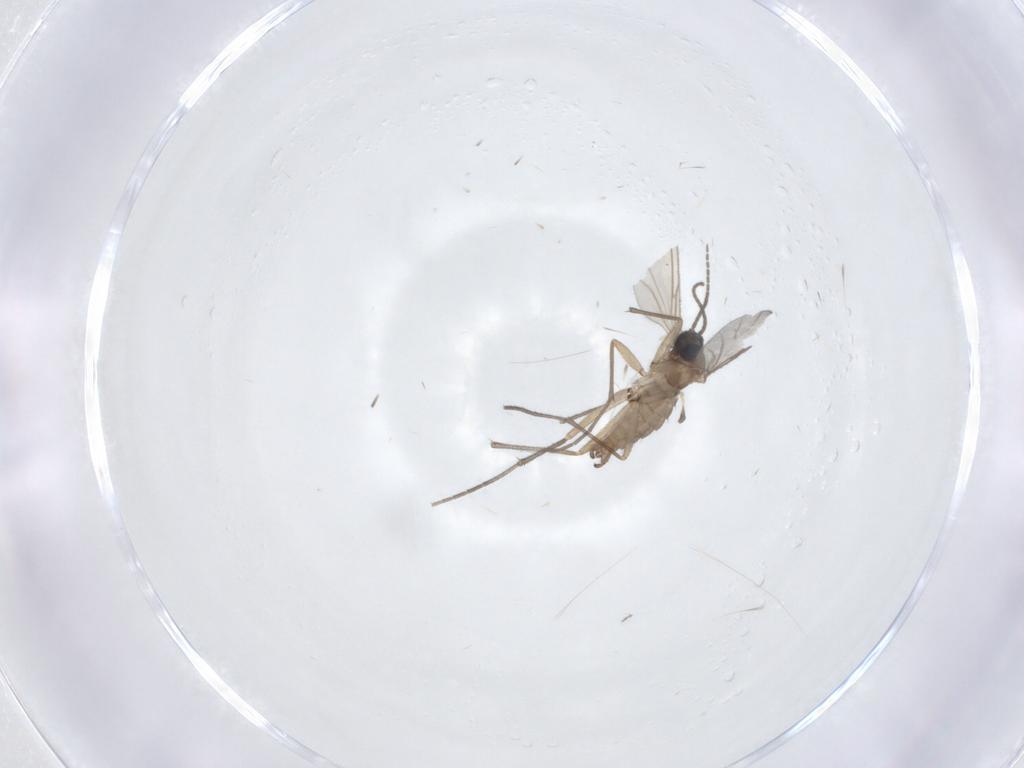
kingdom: Animalia
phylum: Arthropoda
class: Insecta
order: Diptera
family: Sciaridae
